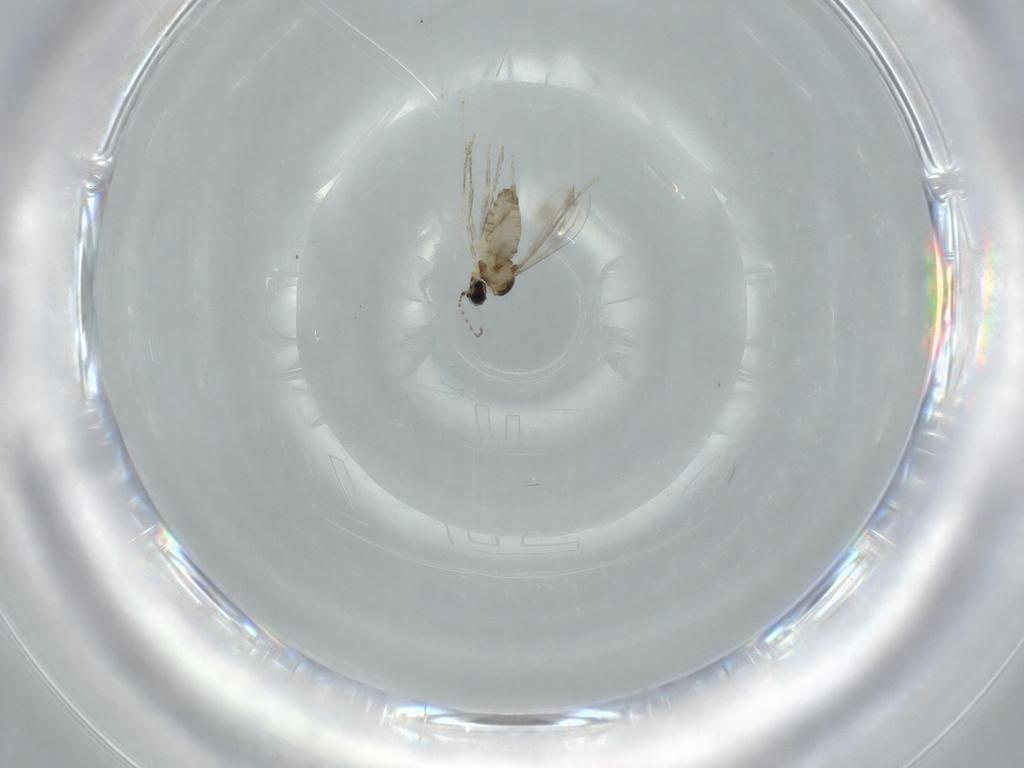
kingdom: Animalia
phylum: Arthropoda
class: Insecta
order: Diptera
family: Cecidomyiidae
